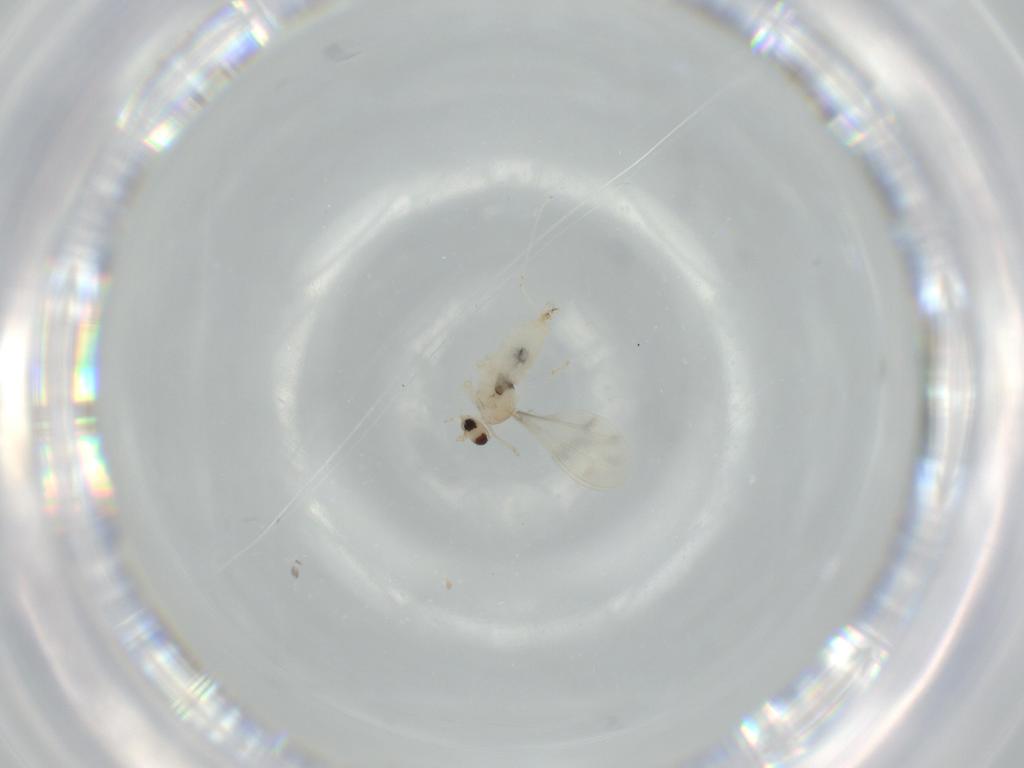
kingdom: Animalia
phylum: Arthropoda
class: Insecta
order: Diptera
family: Cecidomyiidae
